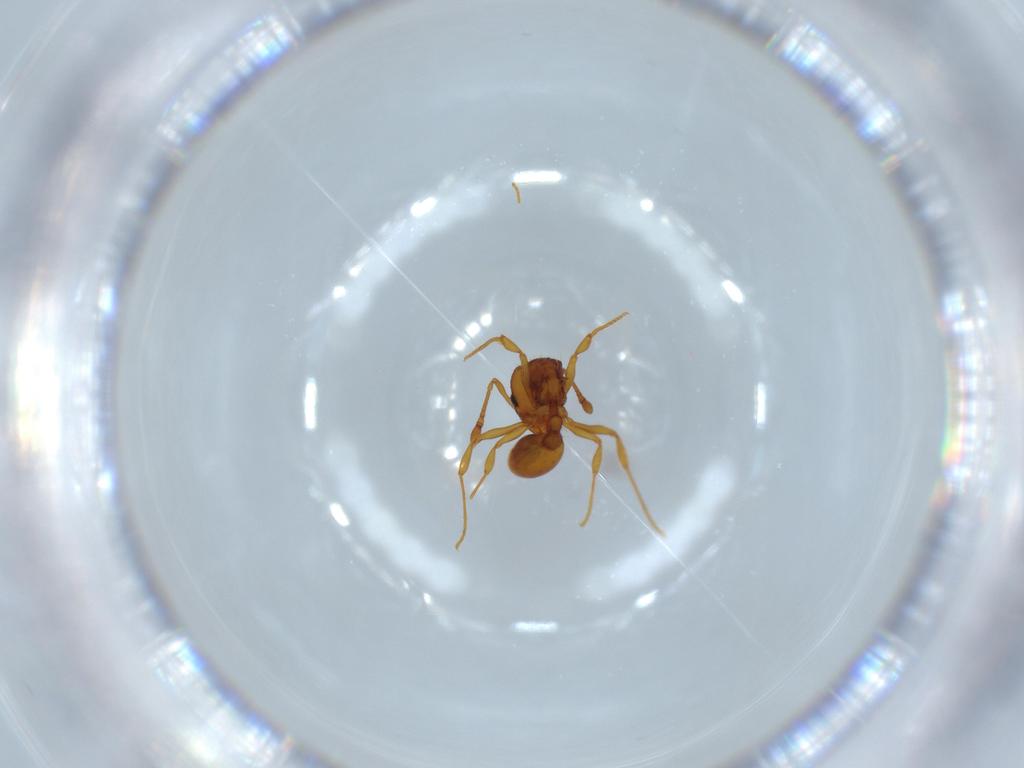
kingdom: Animalia
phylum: Arthropoda
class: Insecta
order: Hymenoptera
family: Formicidae
